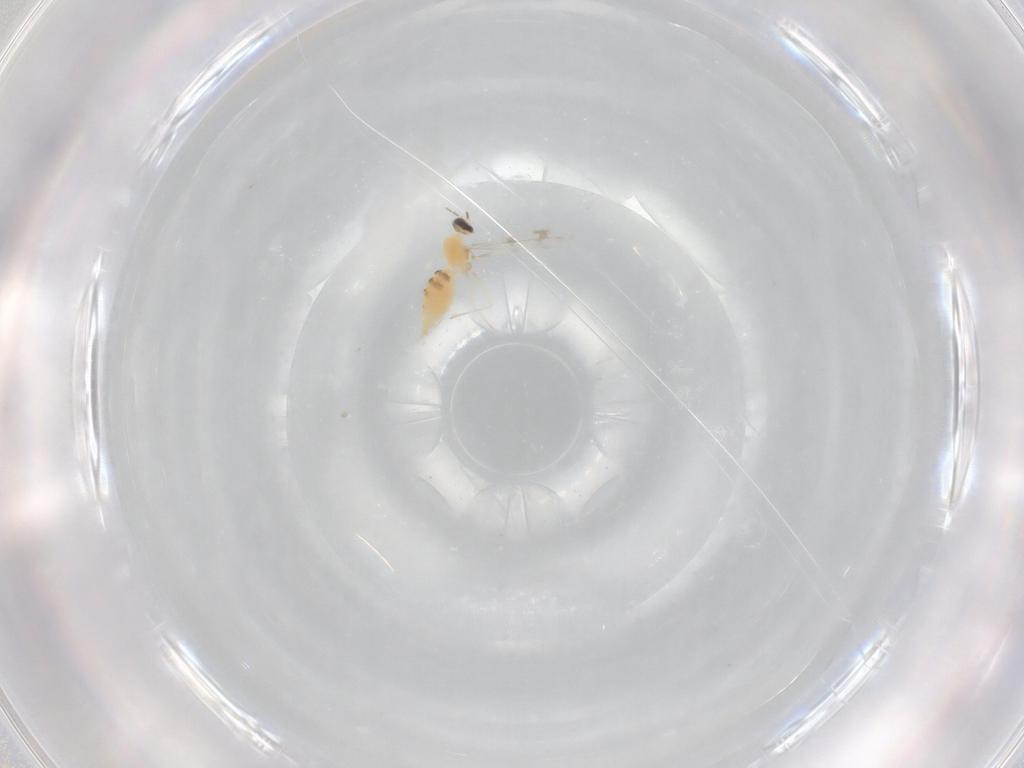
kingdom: Animalia
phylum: Arthropoda
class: Insecta
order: Diptera
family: Cecidomyiidae
